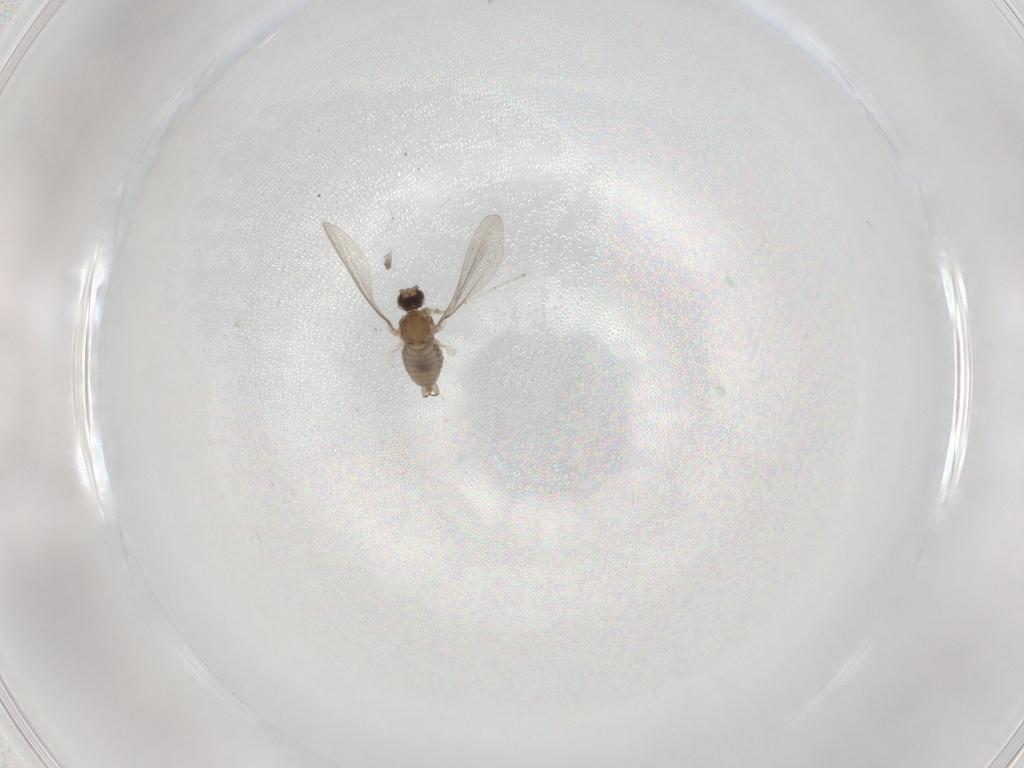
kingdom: Animalia
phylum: Arthropoda
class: Insecta
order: Diptera
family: Cecidomyiidae
